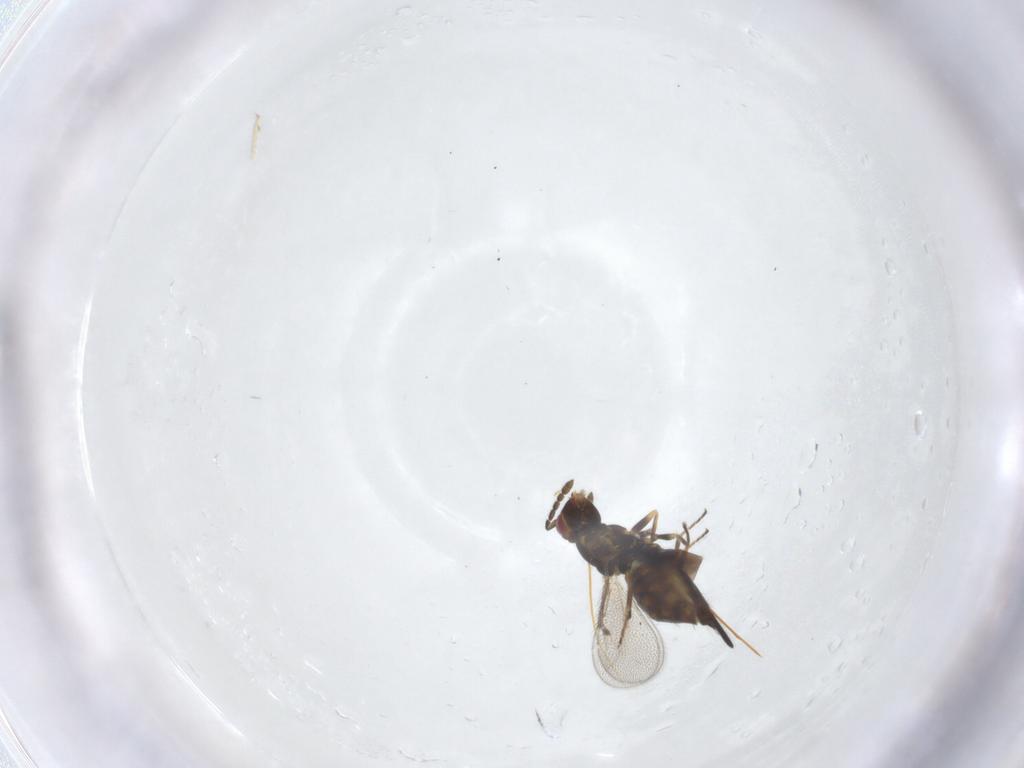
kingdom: Animalia
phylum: Arthropoda
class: Insecta
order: Hymenoptera
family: Eulophidae
